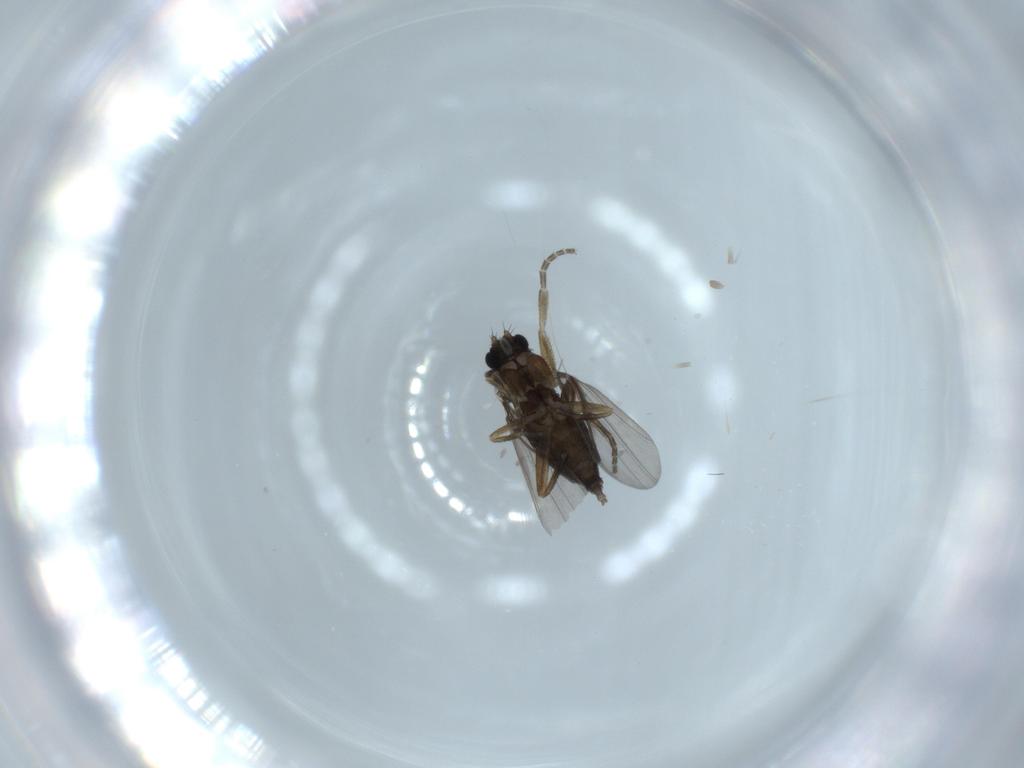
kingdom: Animalia
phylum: Arthropoda
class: Insecta
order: Diptera
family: Phoridae
